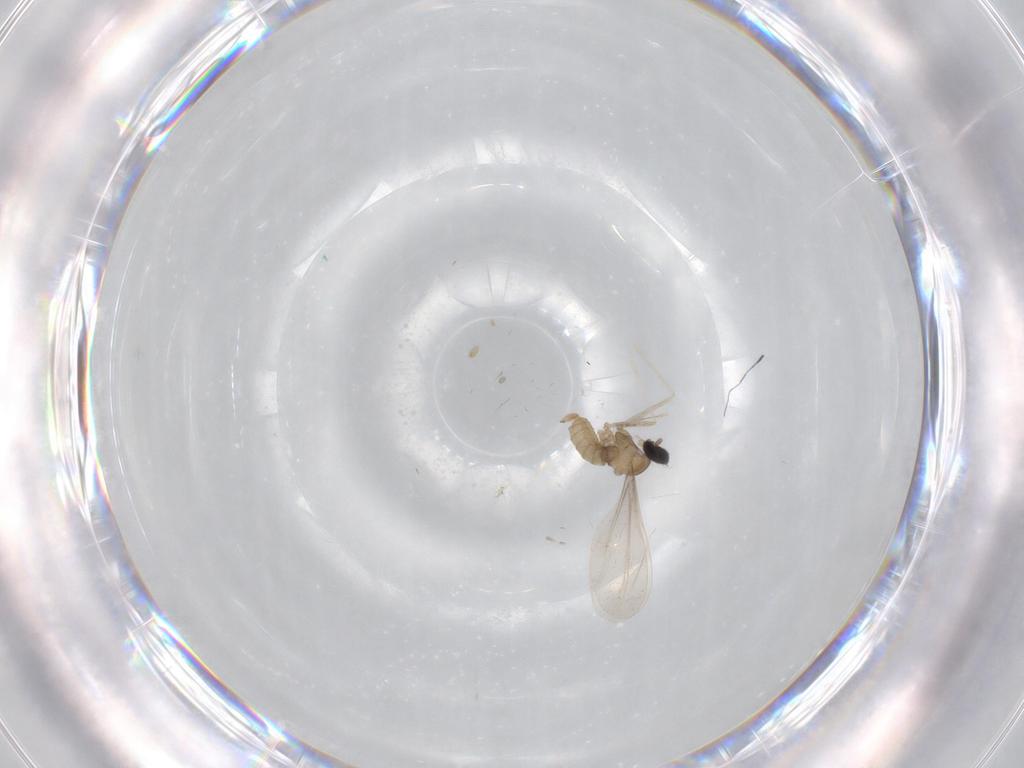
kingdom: Animalia
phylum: Arthropoda
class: Insecta
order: Diptera
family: Cecidomyiidae
